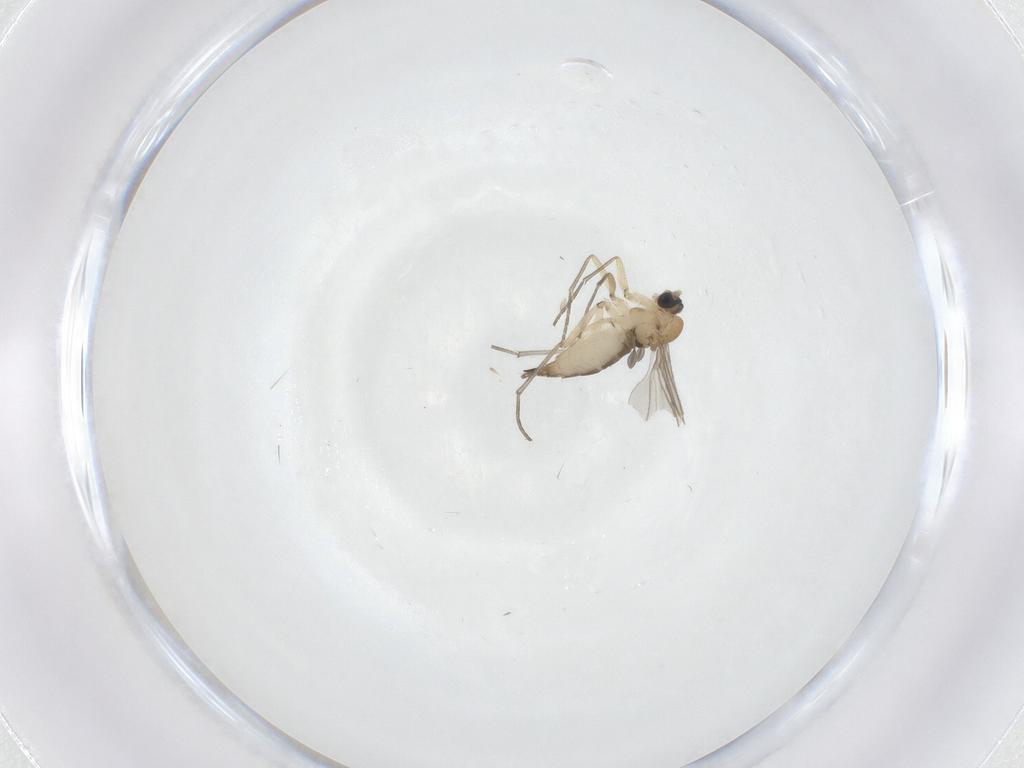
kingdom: Animalia
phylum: Arthropoda
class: Insecta
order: Diptera
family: Sciaridae
